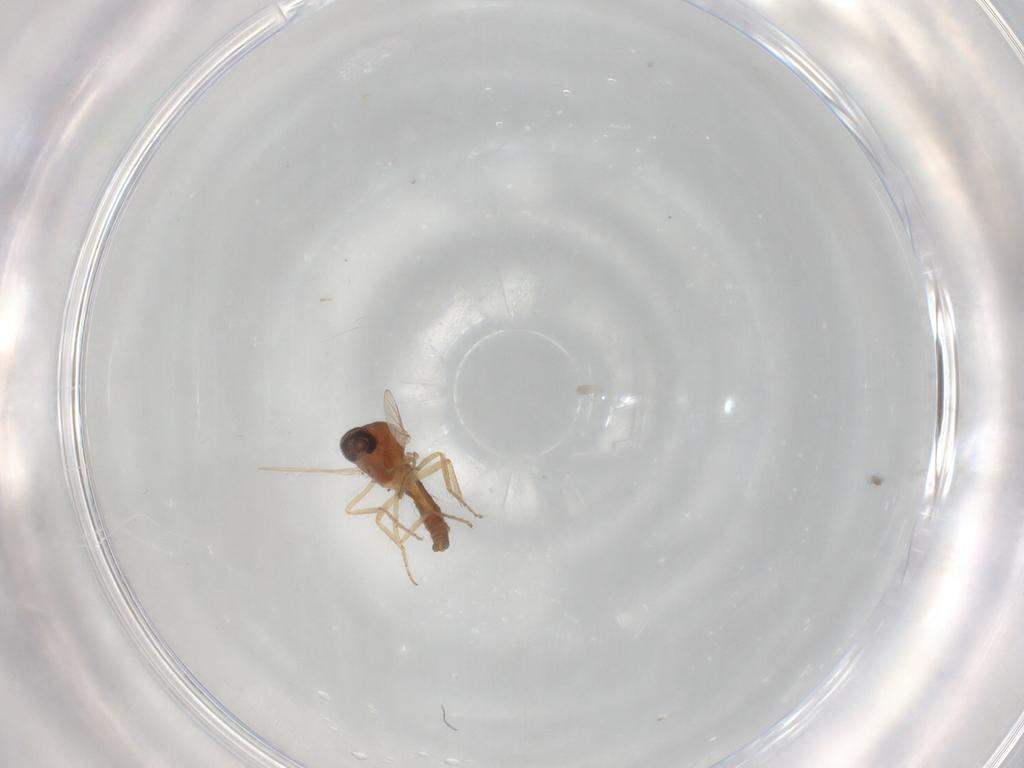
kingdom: Animalia
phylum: Arthropoda
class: Insecta
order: Diptera
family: Ceratopogonidae
